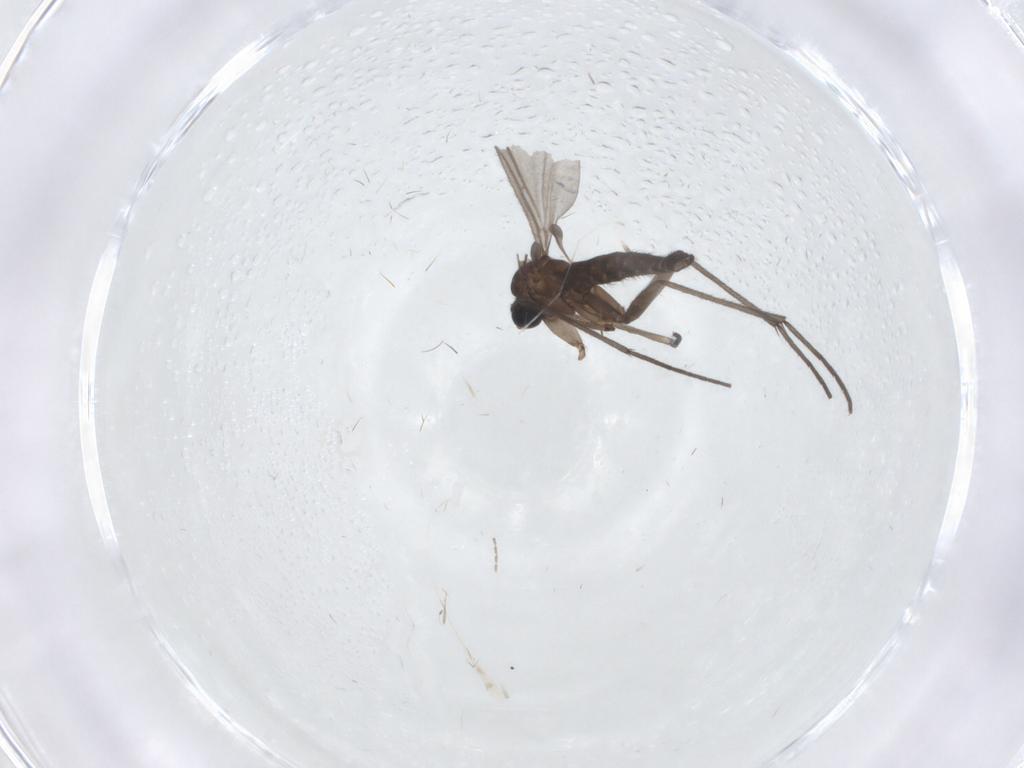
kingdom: Animalia
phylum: Arthropoda
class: Insecta
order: Diptera
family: Sciaridae
